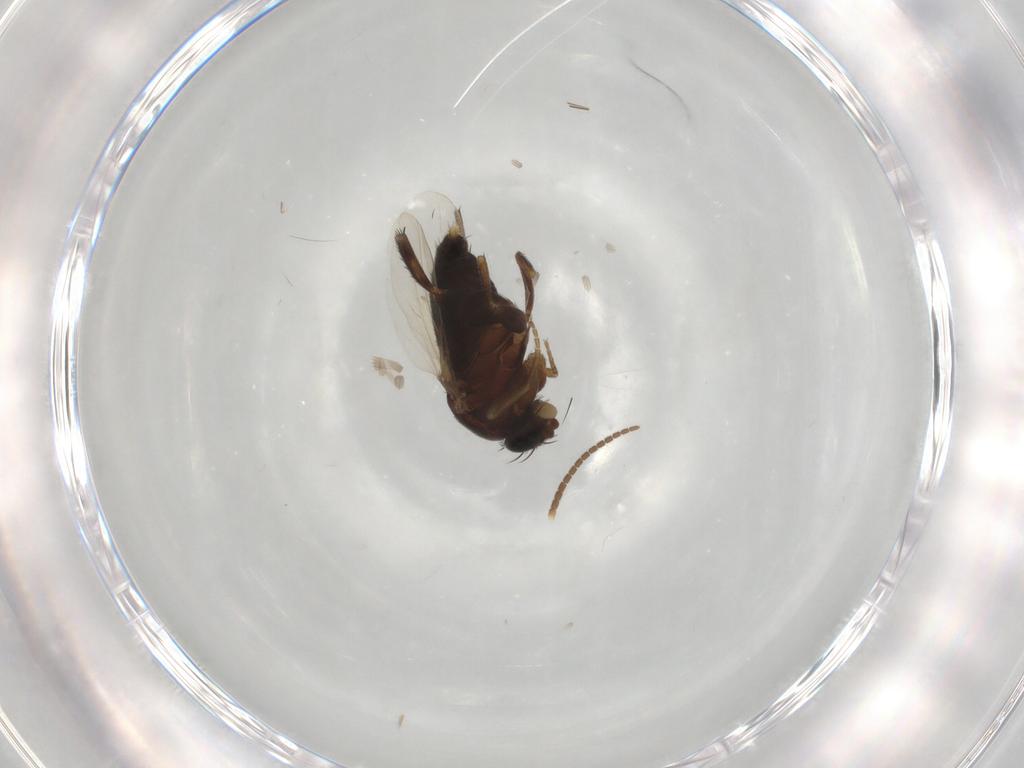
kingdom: Animalia
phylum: Arthropoda
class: Insecta
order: Diptera
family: Phoridae
